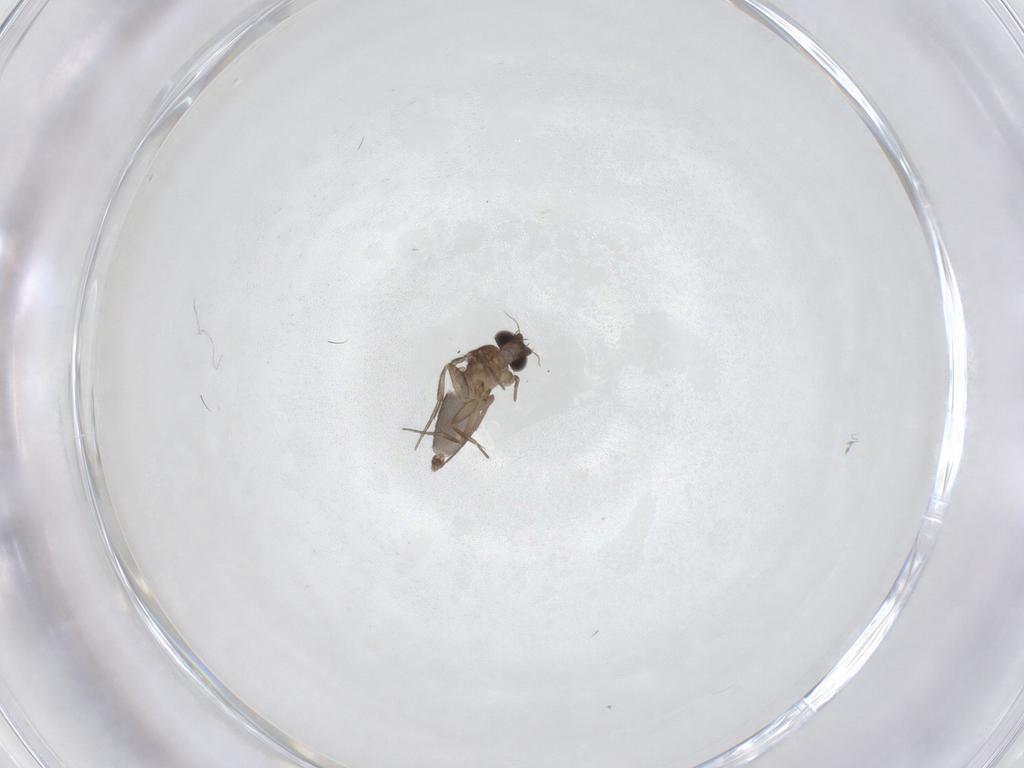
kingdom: Animalia
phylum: Arthropoda
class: Insecta
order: Diptera
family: Phoridae
